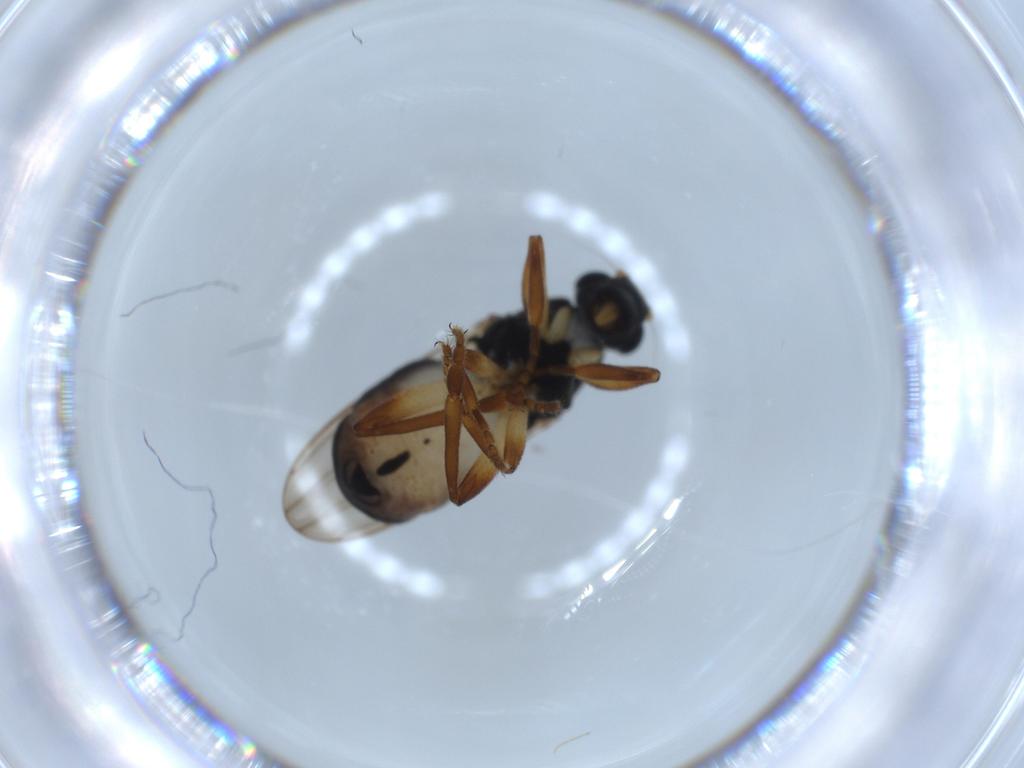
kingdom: Animalia
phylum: Arthropoda
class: Insecta
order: Diptera
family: Sphaeroceridae
